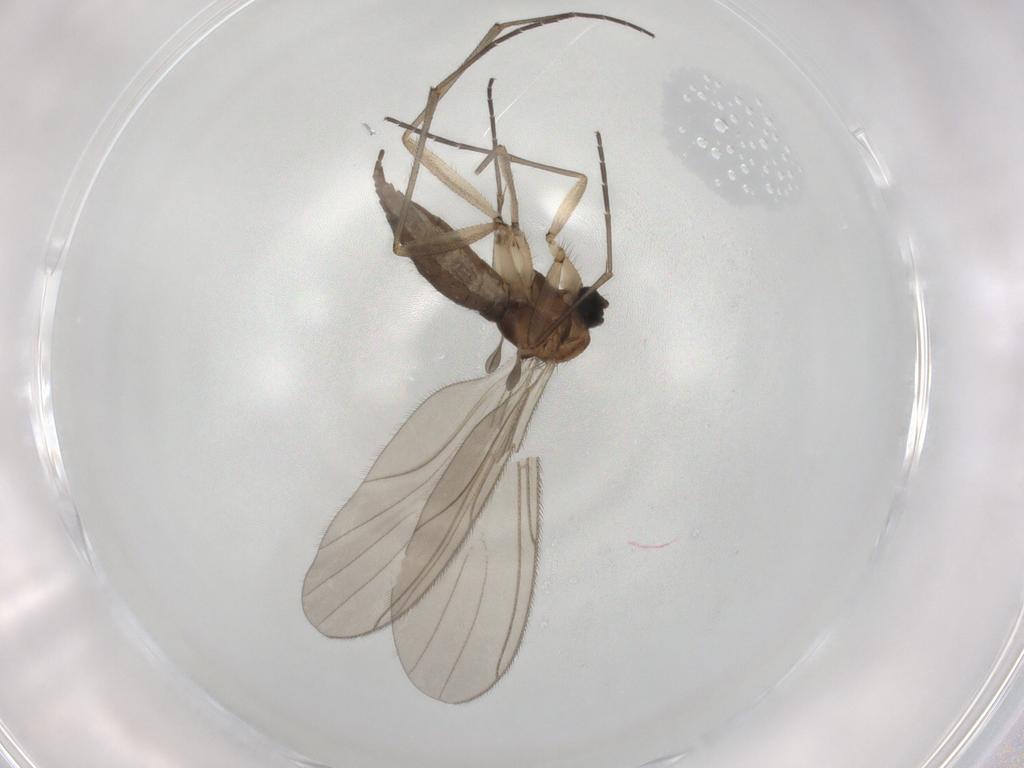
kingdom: Animalia
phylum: Arthropoda
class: Insecta
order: Diptera
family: Sciaridae
